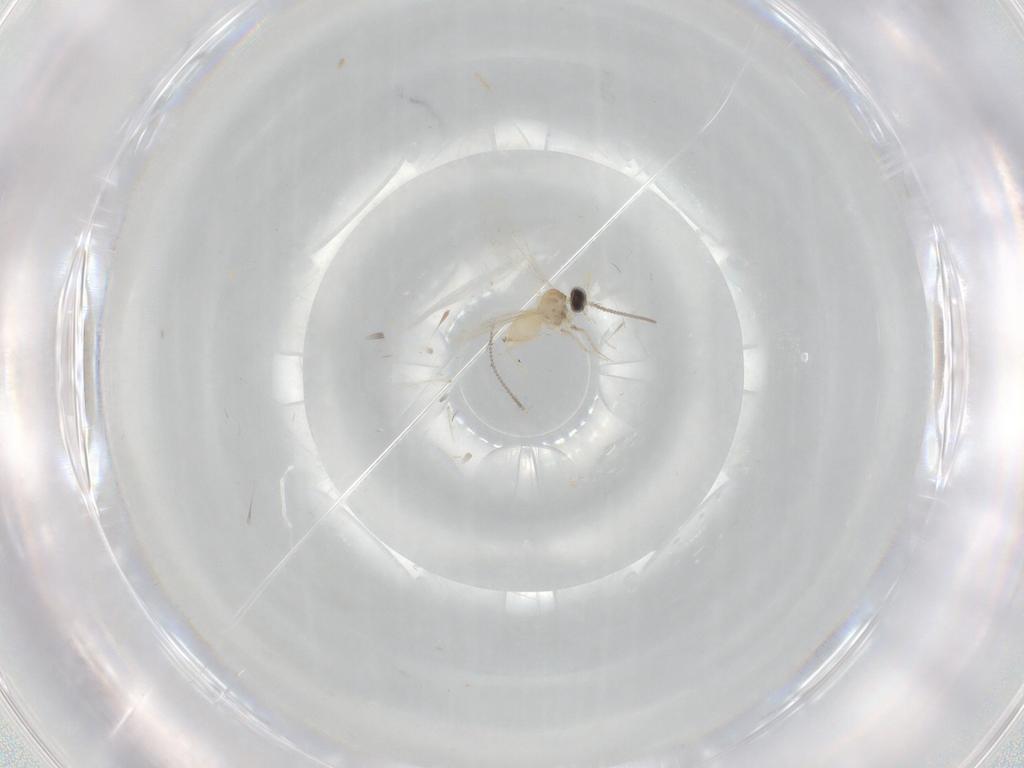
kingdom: Animalia
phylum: Arthropoda
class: Insecta
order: Diptera
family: Cecidomyiidae
